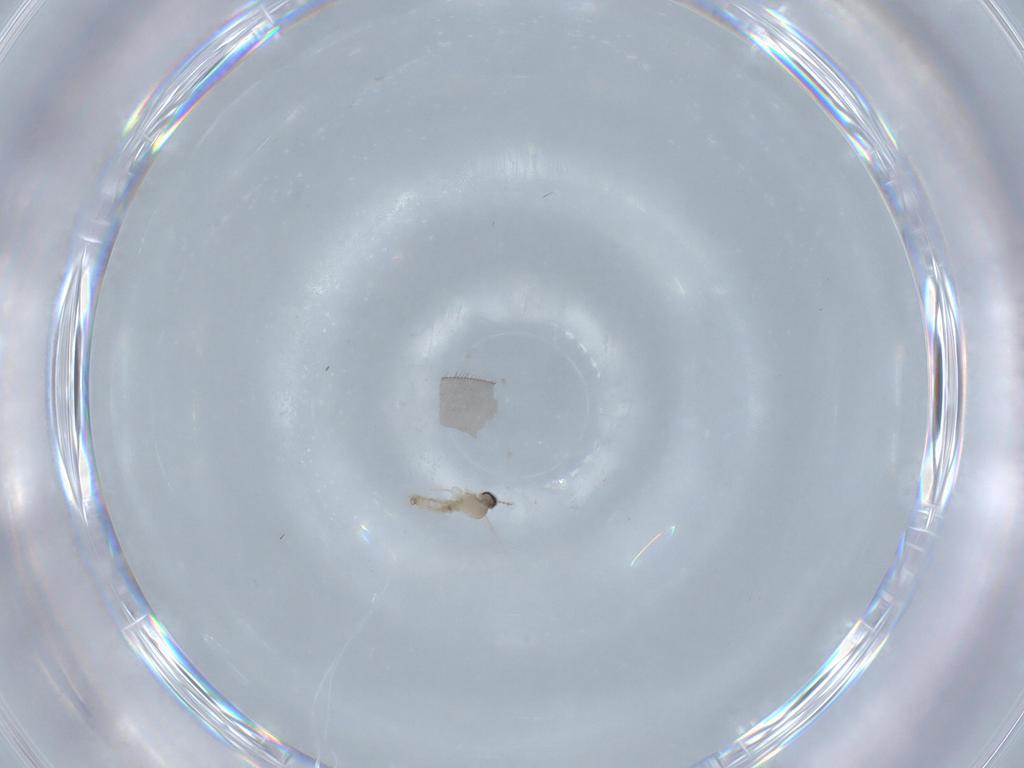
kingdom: Animalia
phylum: Arthropoda
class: Insecta
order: Diptera
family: Cecidomyiidae
